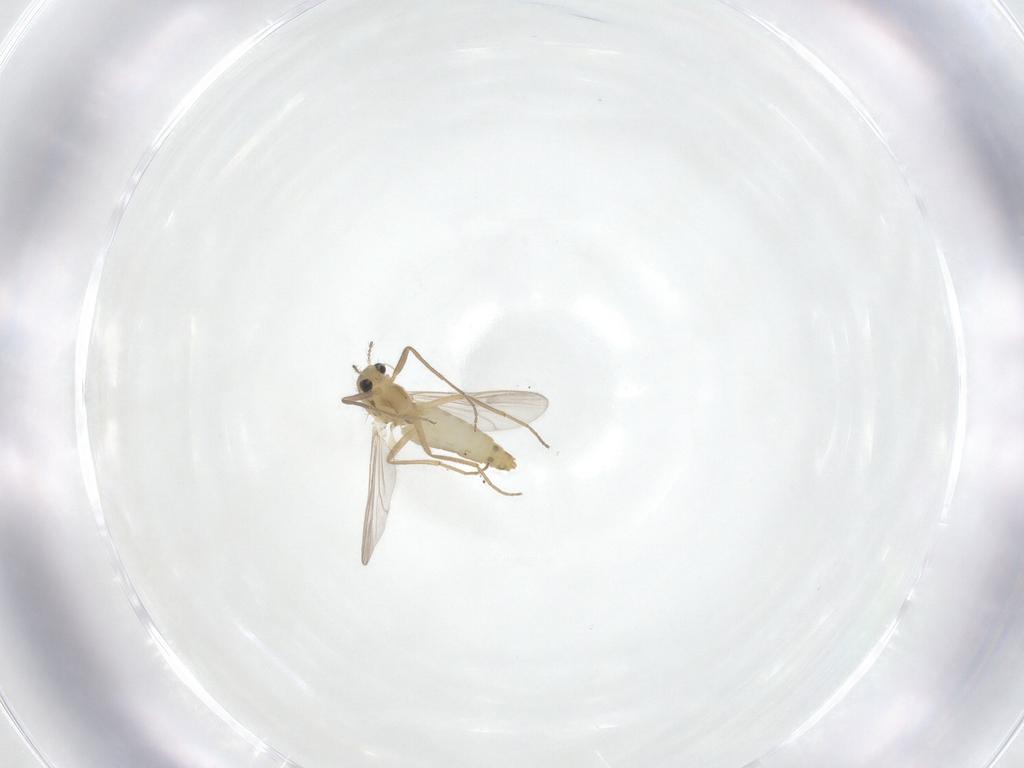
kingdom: Animalia
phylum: Arthropoda
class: Insecta
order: Diptera
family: Chironomidae
